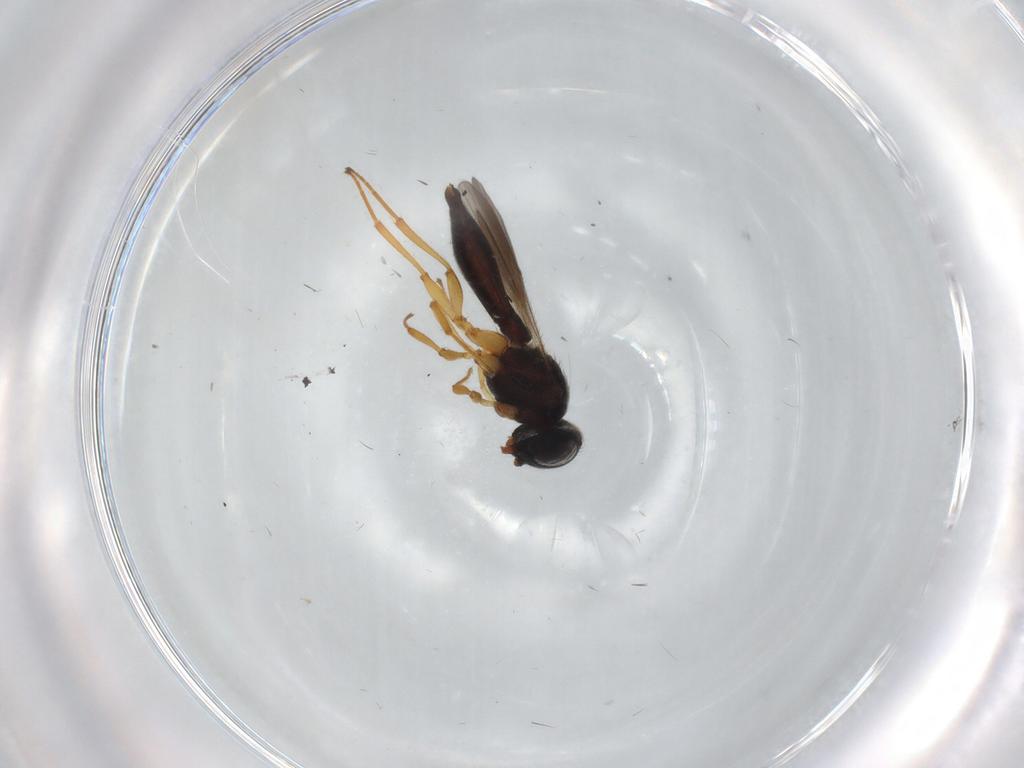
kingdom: Animalia
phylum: Arthropoda
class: Insecta
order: Hymenoptera
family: Scelionidae
